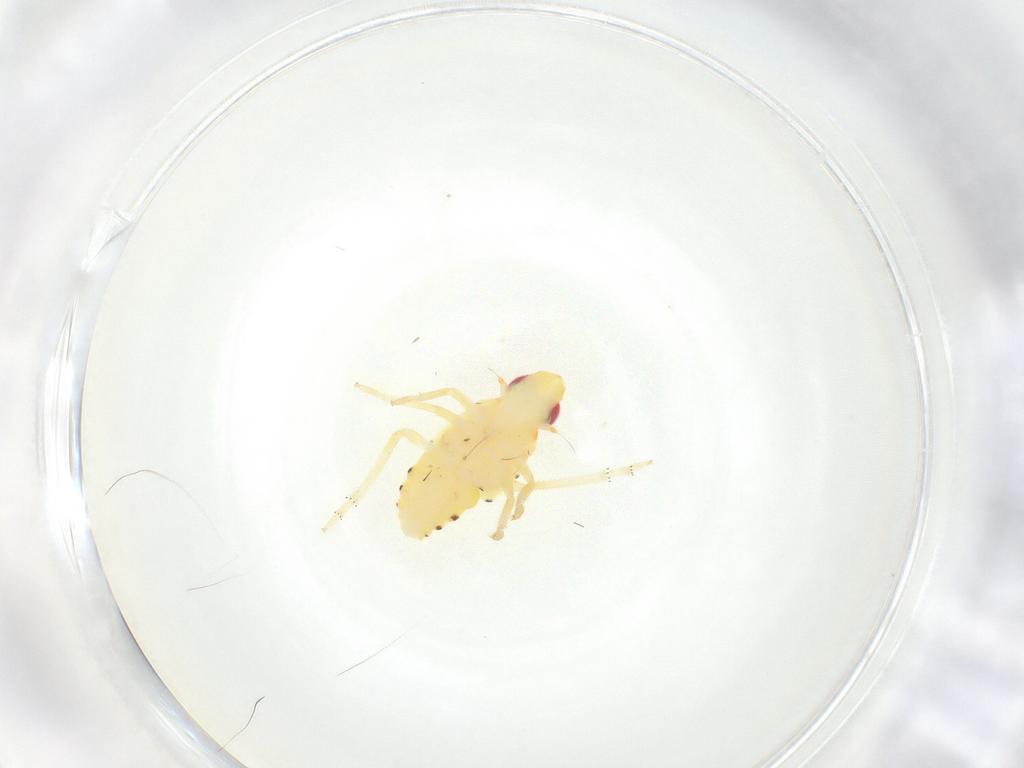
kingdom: Animalia
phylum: Arthropoda
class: Insecta
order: Hemiptera
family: Tropiduchidae
